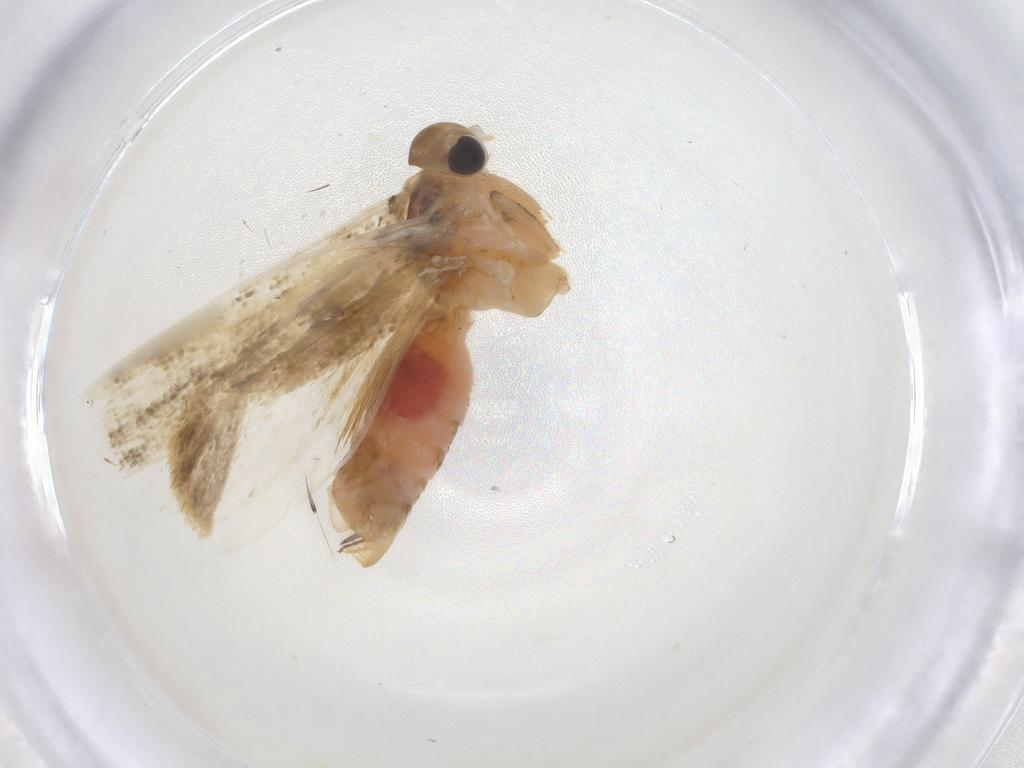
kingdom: Animalia
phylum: Arthropoda
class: Insecta
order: Lepidoptera
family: Gelechiidae
